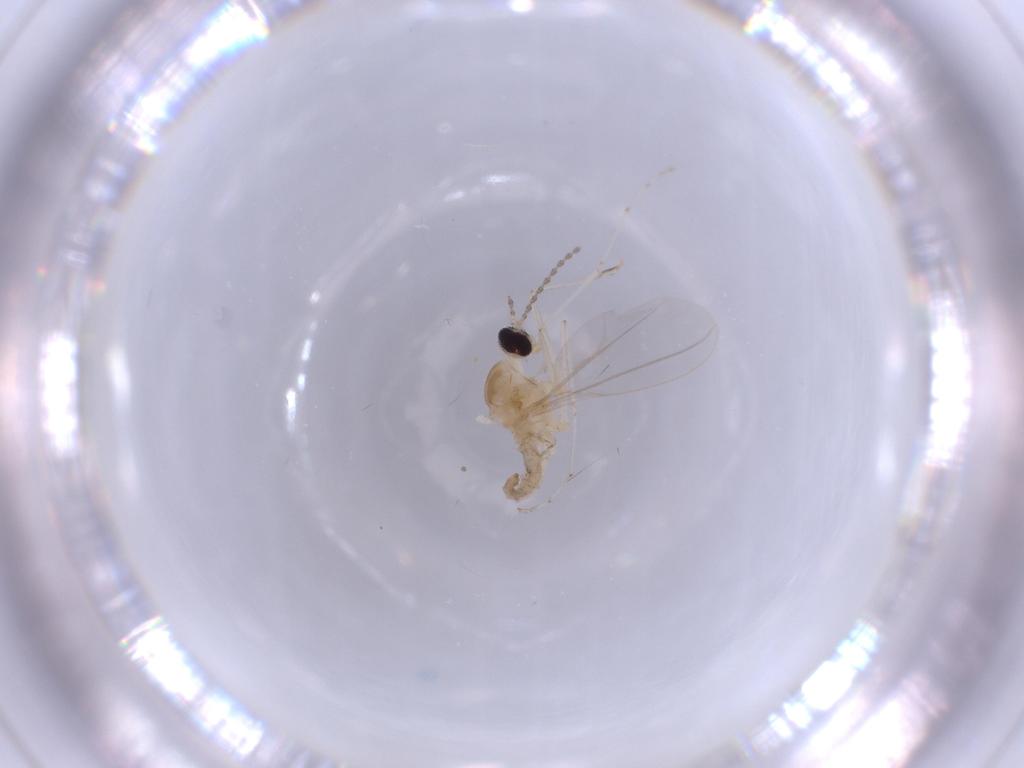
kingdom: Animalia
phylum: Arthropoda
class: Insecta
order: Diptera
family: Cecidomyiidae
